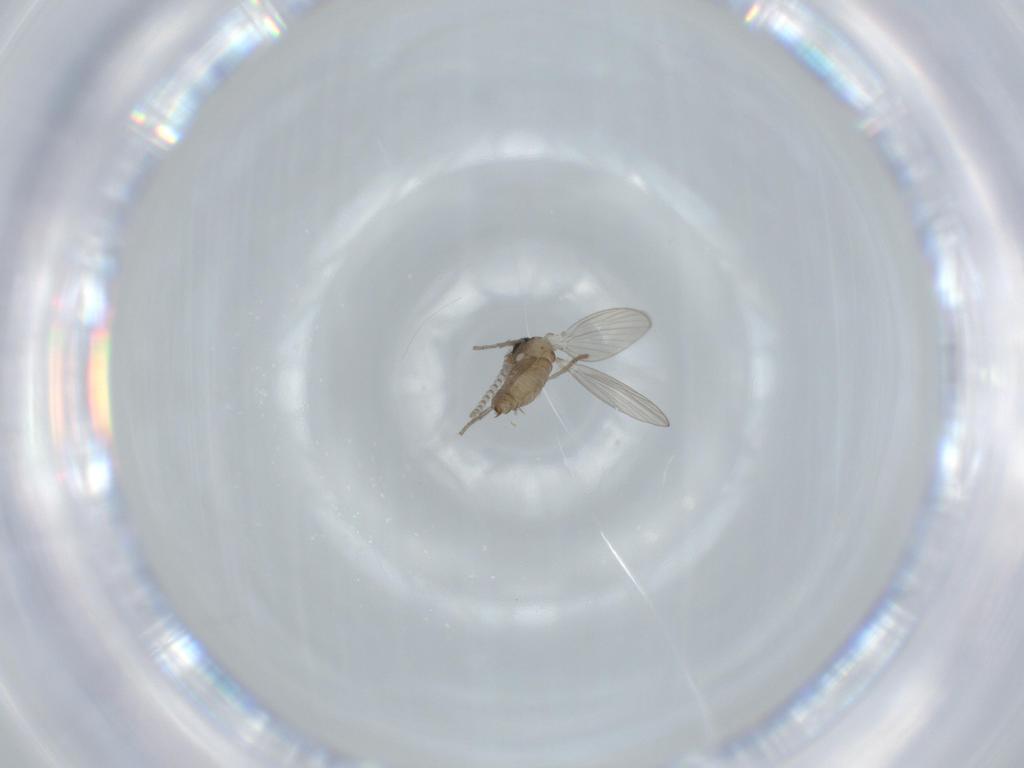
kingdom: Animalia
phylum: Arthropoda
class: Insecta
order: Diptera
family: Psychodidae
